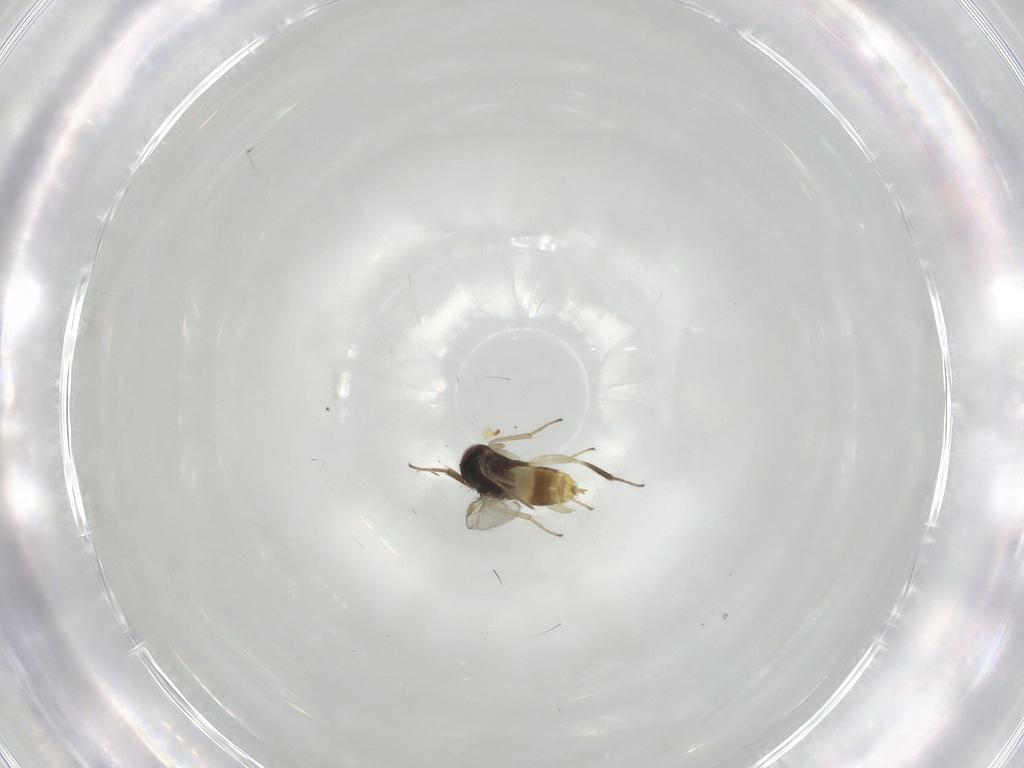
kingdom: Animalia
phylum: Arthropoda
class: Insecta
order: Hymenoptera
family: Aphelinidae
